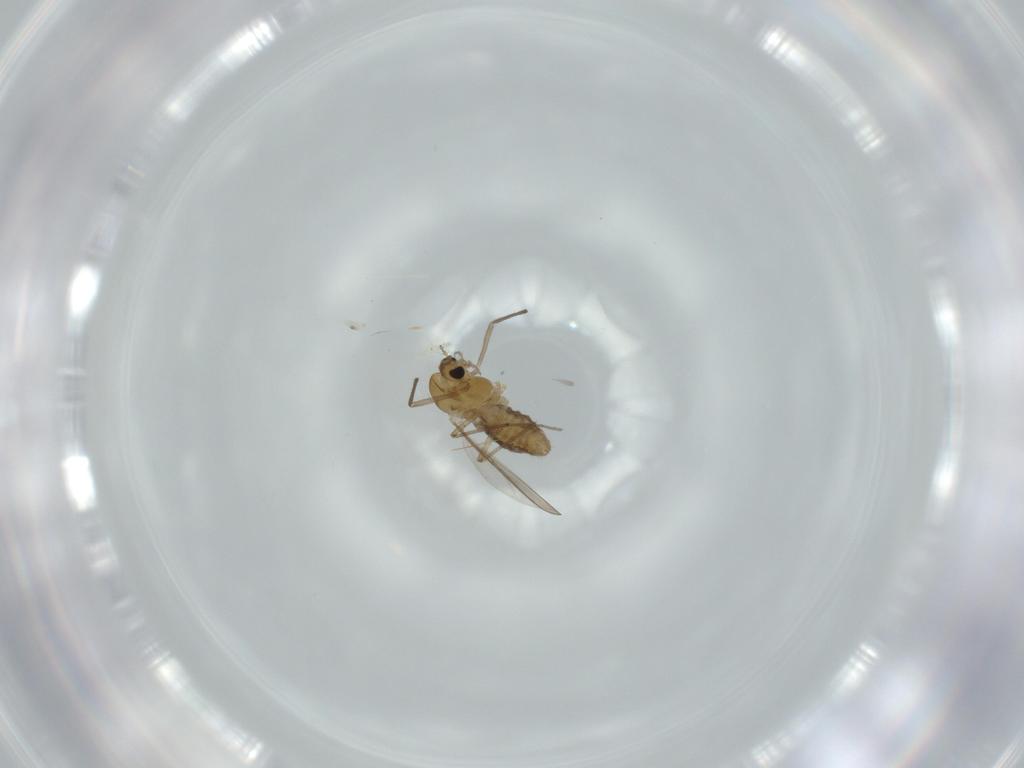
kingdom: Animalia
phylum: Arthropoda
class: Insecta
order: Diptera
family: Chironomidae
